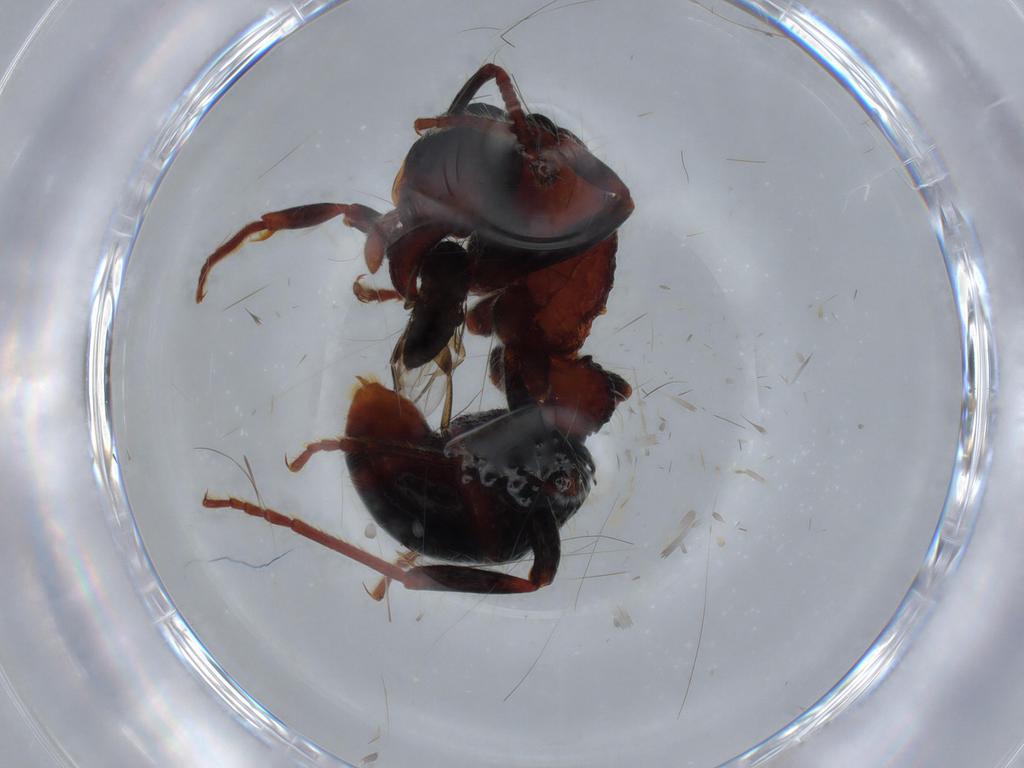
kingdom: Animalia
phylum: Arthropoda
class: Insecta
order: Hymenoptera
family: Formicidae
